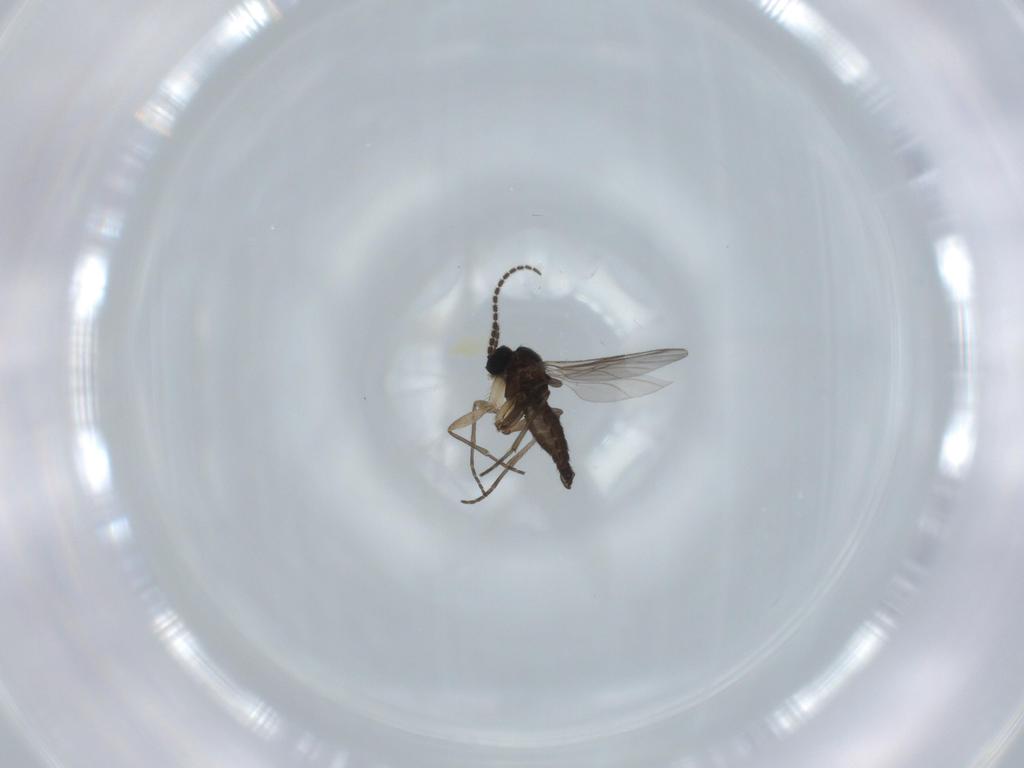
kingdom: Animalia
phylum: Arthropoda
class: Insecta
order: Diptera
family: Sciaridae
